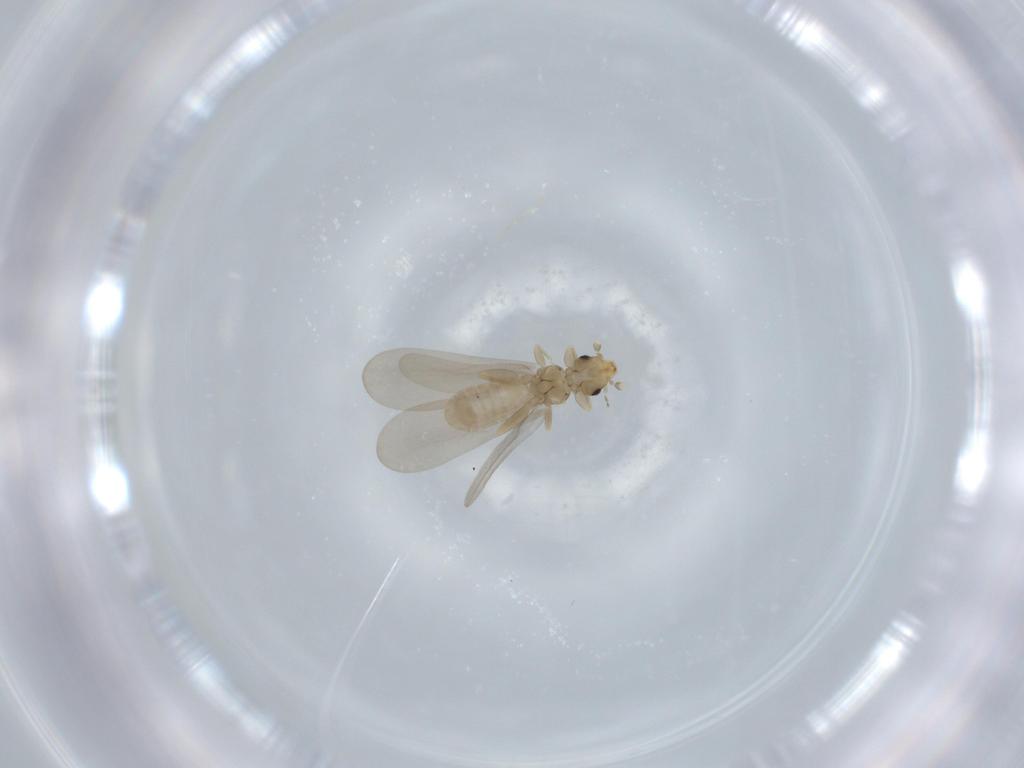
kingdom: Animalia
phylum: Arthropoda
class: Insecta
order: Psocodea
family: Liposcelididae
